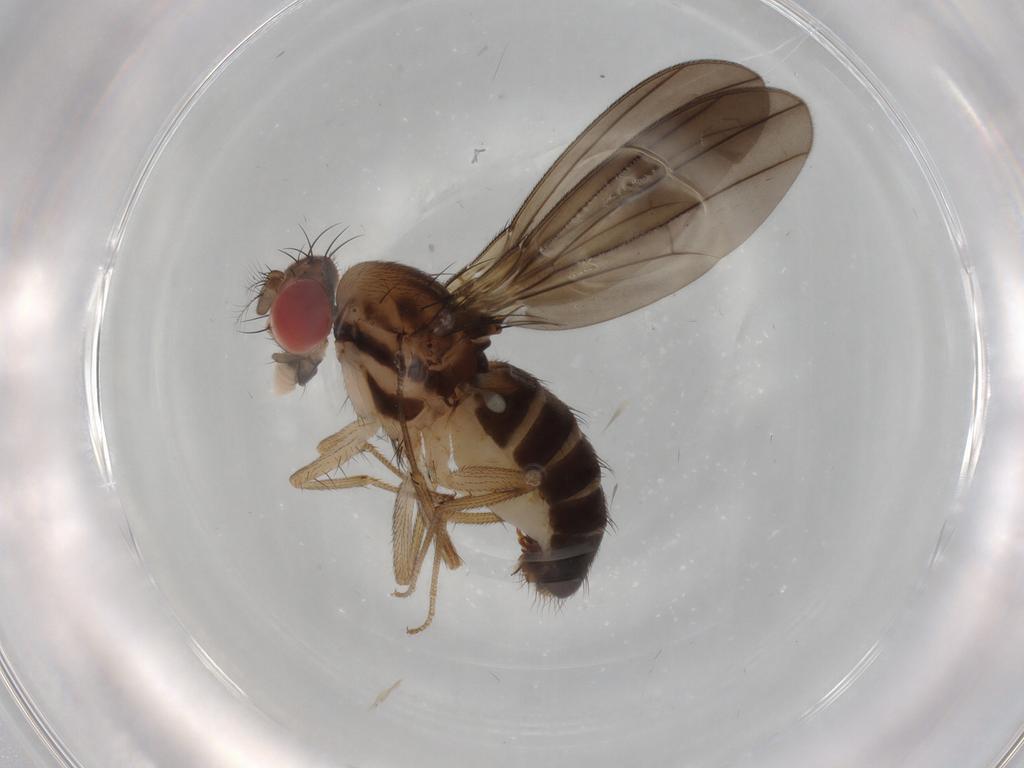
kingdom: Animalia
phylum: Arthropoda
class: Insecta
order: Diptera
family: Drosophilidae
